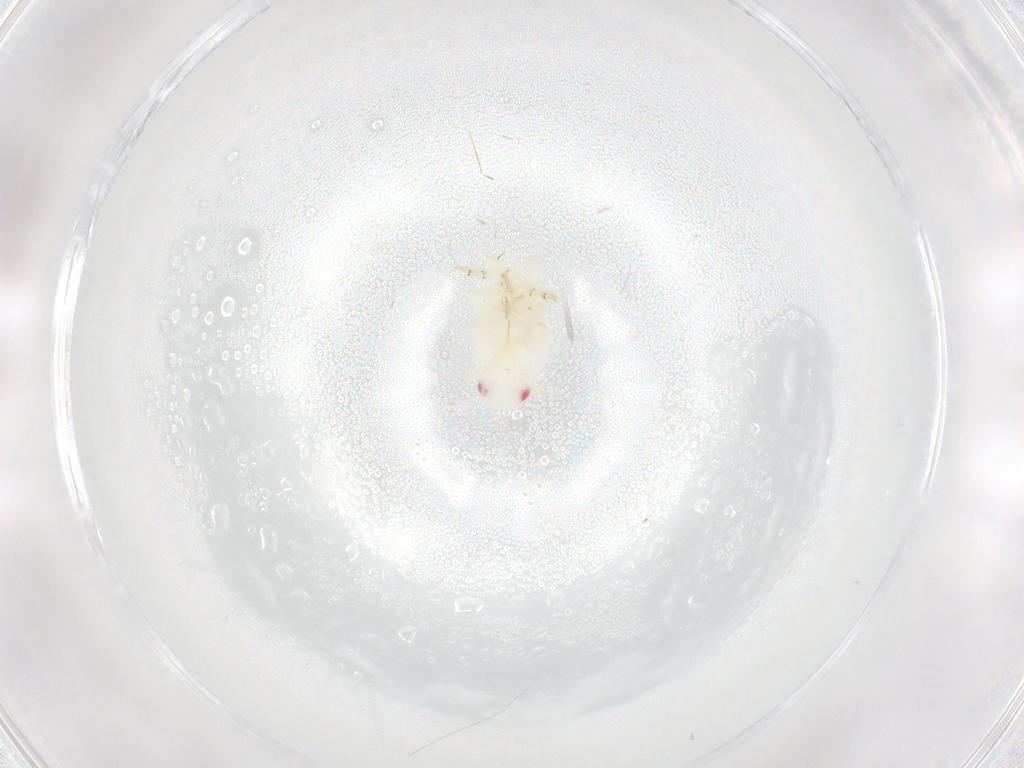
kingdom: Animalia
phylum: Arthropoda
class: Insecta
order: Hemiptera
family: Flatidae
